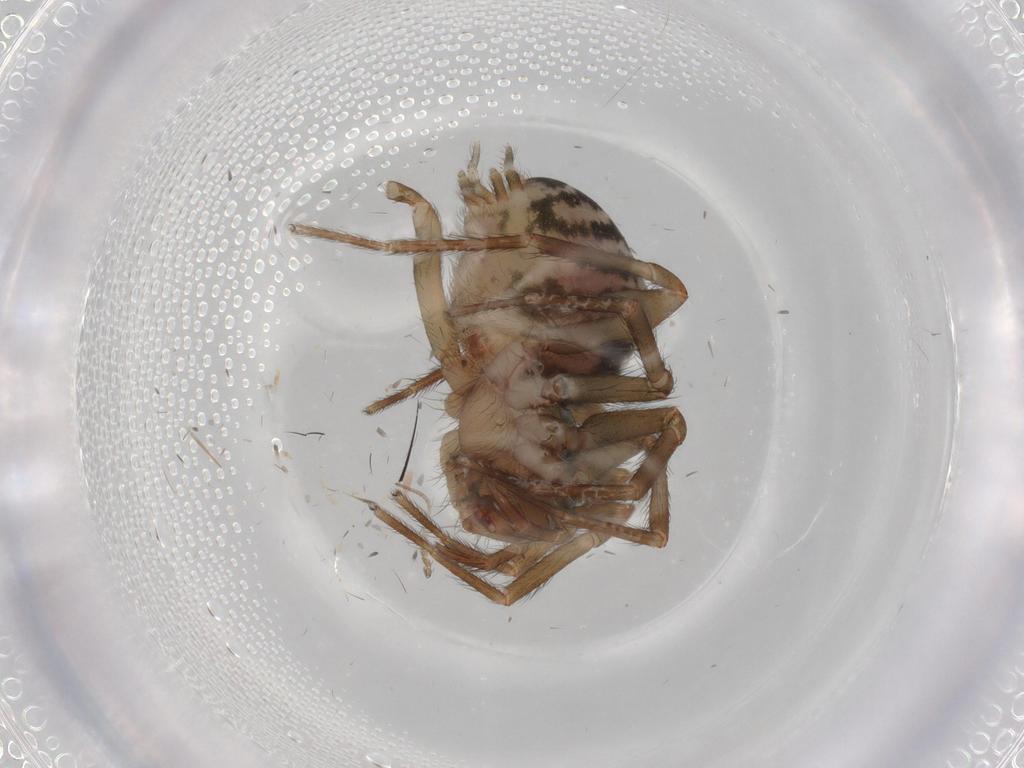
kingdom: Animalia
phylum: Arthropoda
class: Arachnida
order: Araneae
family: Hahniidae
